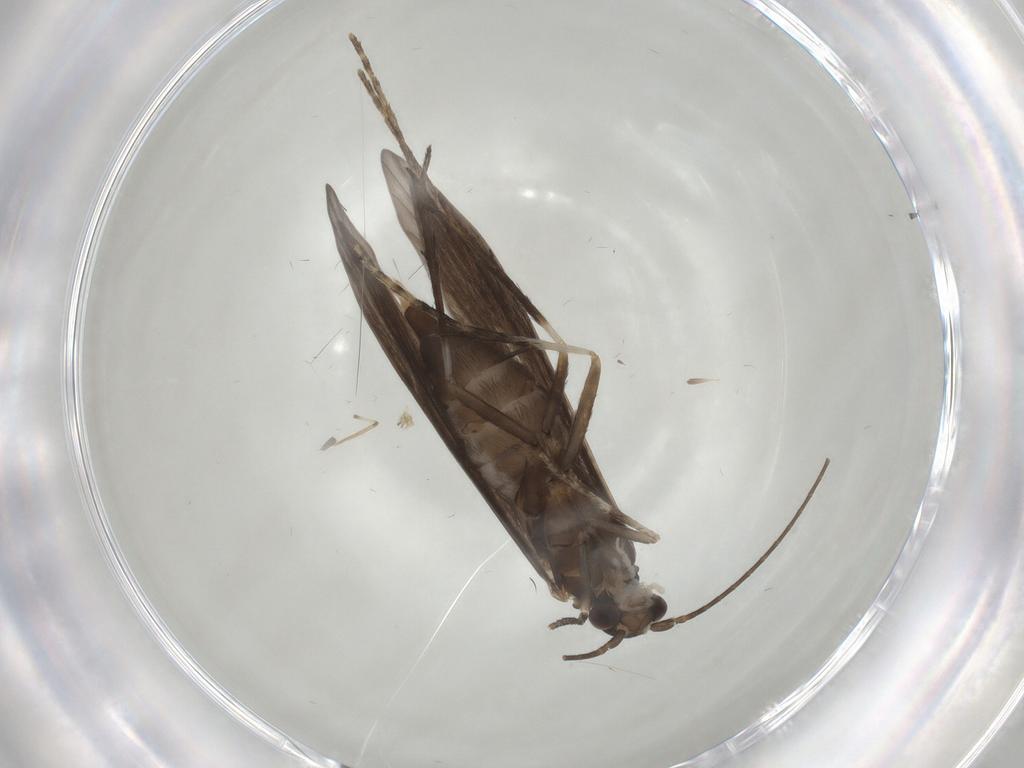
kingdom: Animalia
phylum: Arthropoda
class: Insecta
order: Trichoptera
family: Xiphocentronidae
